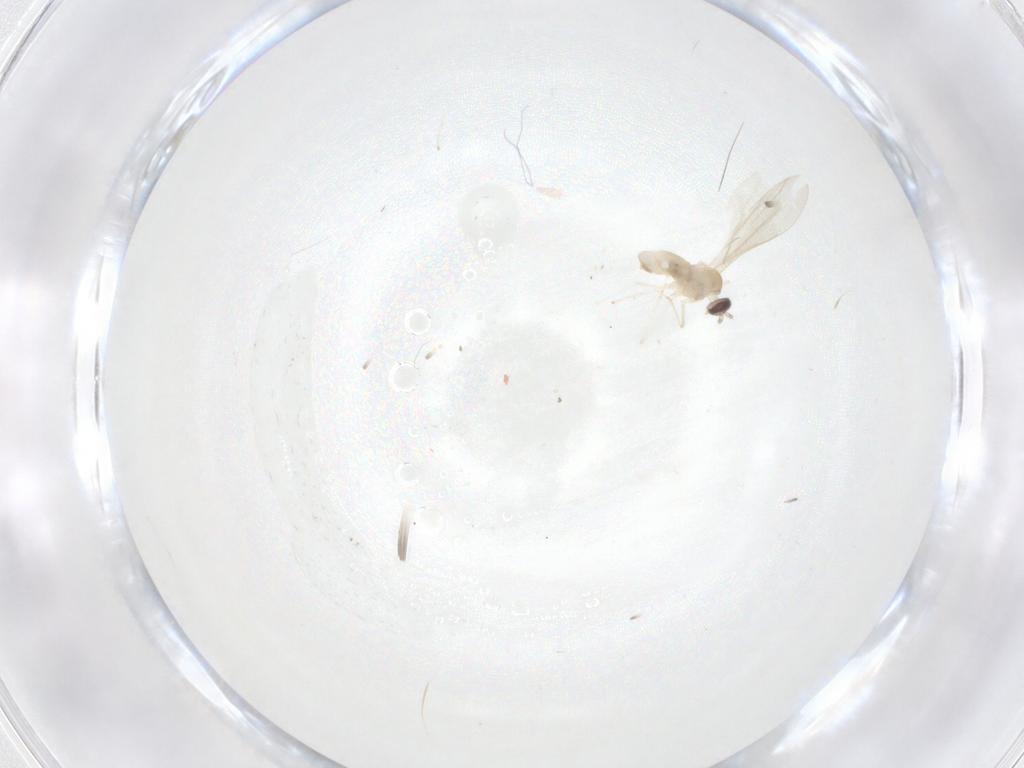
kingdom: Animalia
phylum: Arthropoda
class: Insecta
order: Diptera
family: Cecidomyiidae
